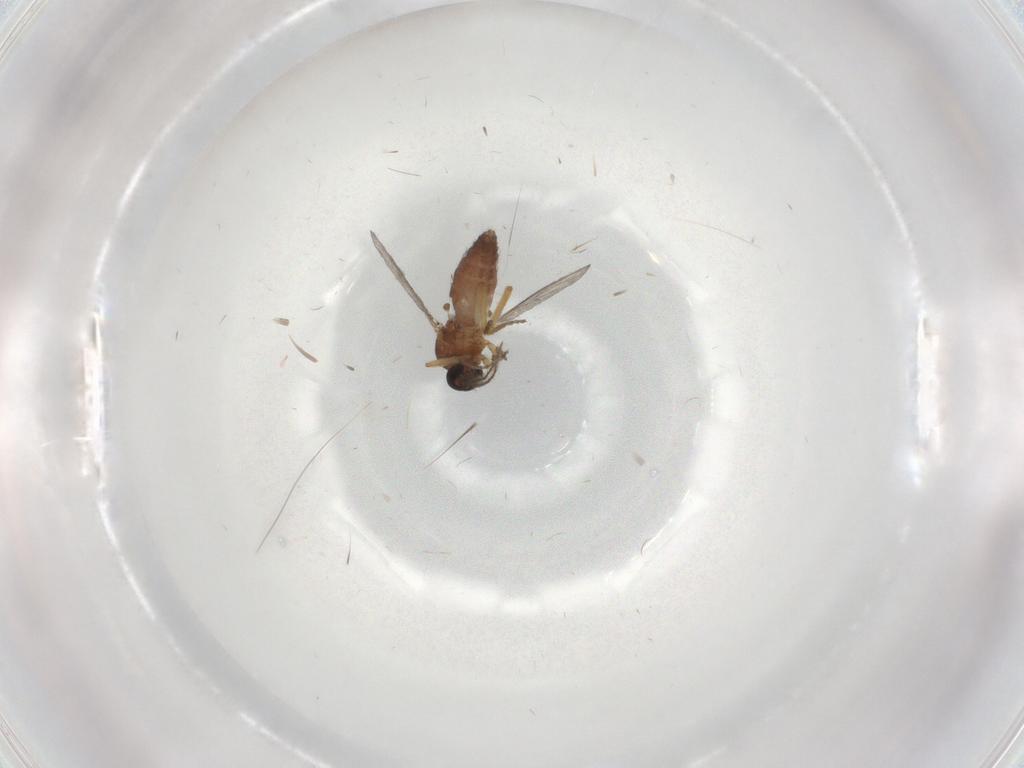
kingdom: Animalia
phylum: Arthropoda
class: Insecta
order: Diptera
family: Ceratopogonidae
